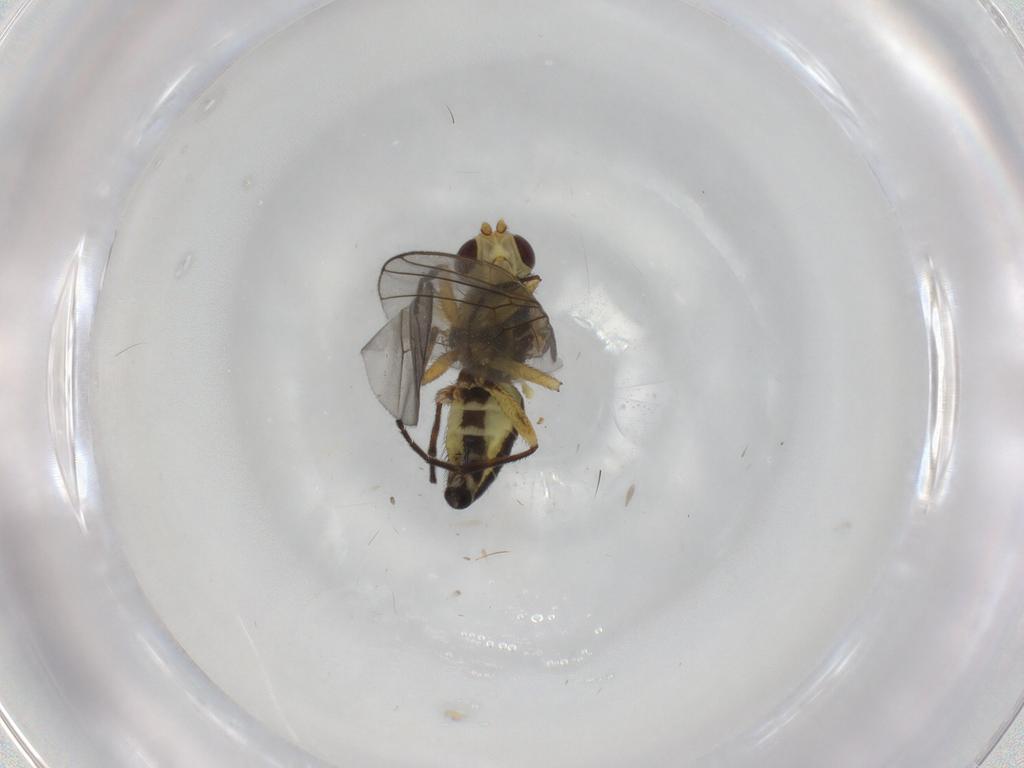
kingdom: Animalia
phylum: Arthropoda
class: Insecta
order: Diptera
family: Agromyzidae
